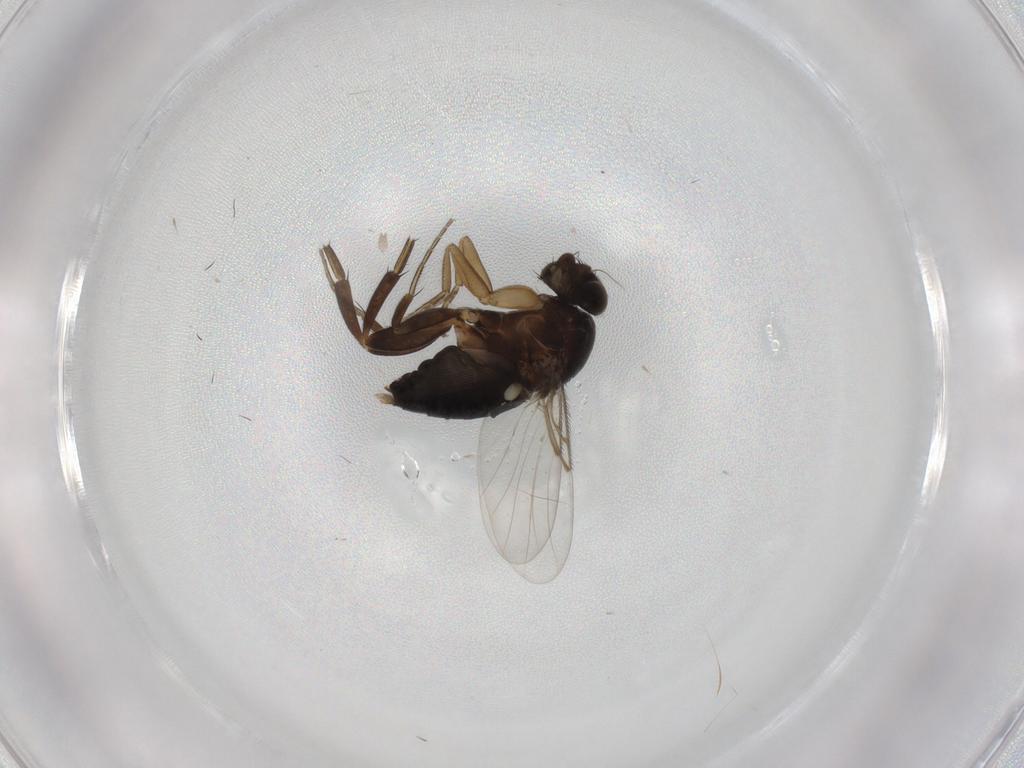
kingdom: Animalia
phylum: Arthropoda
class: Insecta
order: Diptera
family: Phoridae
